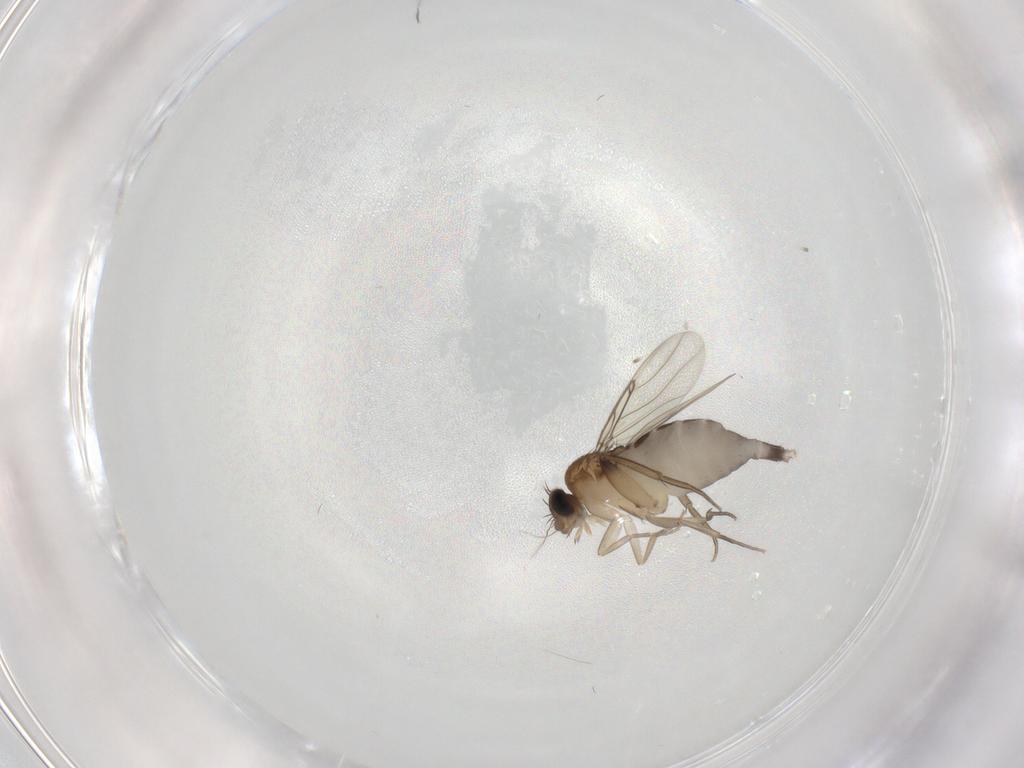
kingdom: Animalia
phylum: Arthropoda
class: Insecta
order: Diptera
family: Phoridae
